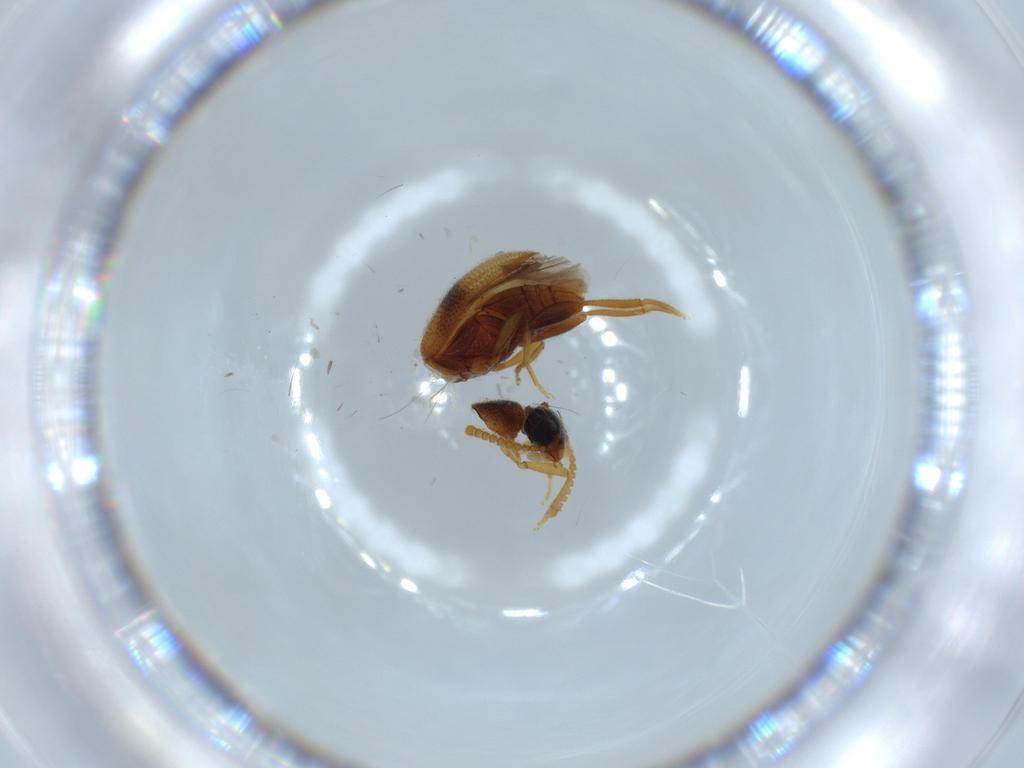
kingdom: Animalia
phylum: Arthropoda
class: Insecta
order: Coleoptera
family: Aderidae
